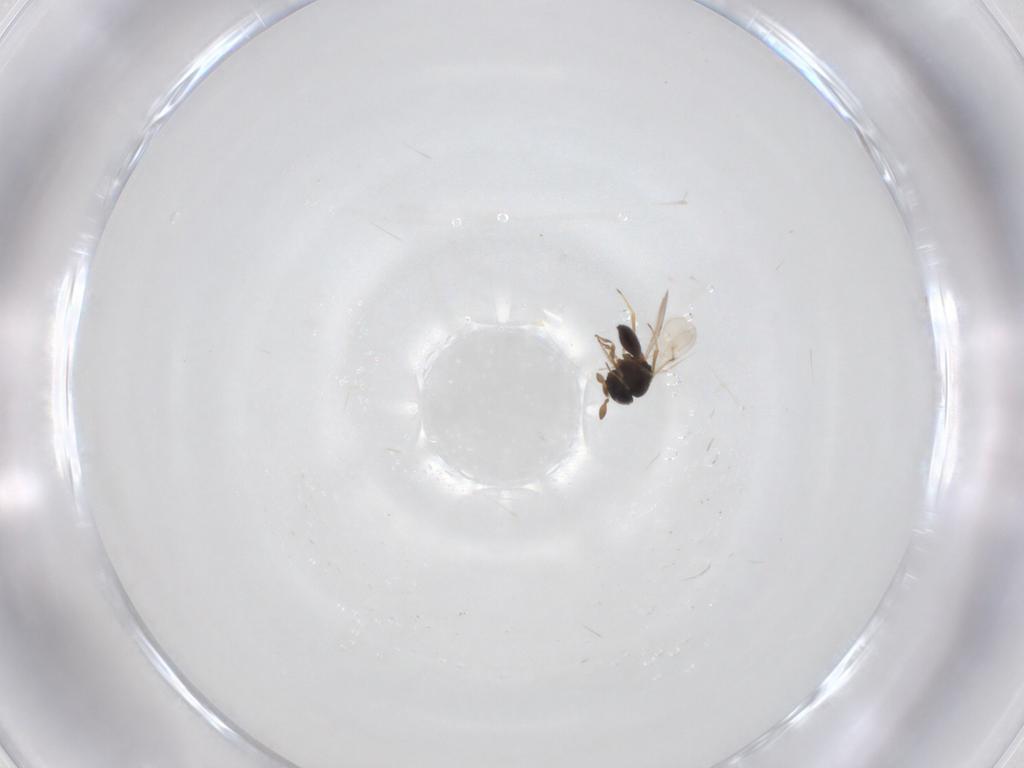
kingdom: Animalia
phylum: Arthropoda
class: Insecta
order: Hymenoptera
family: Scelionidae
